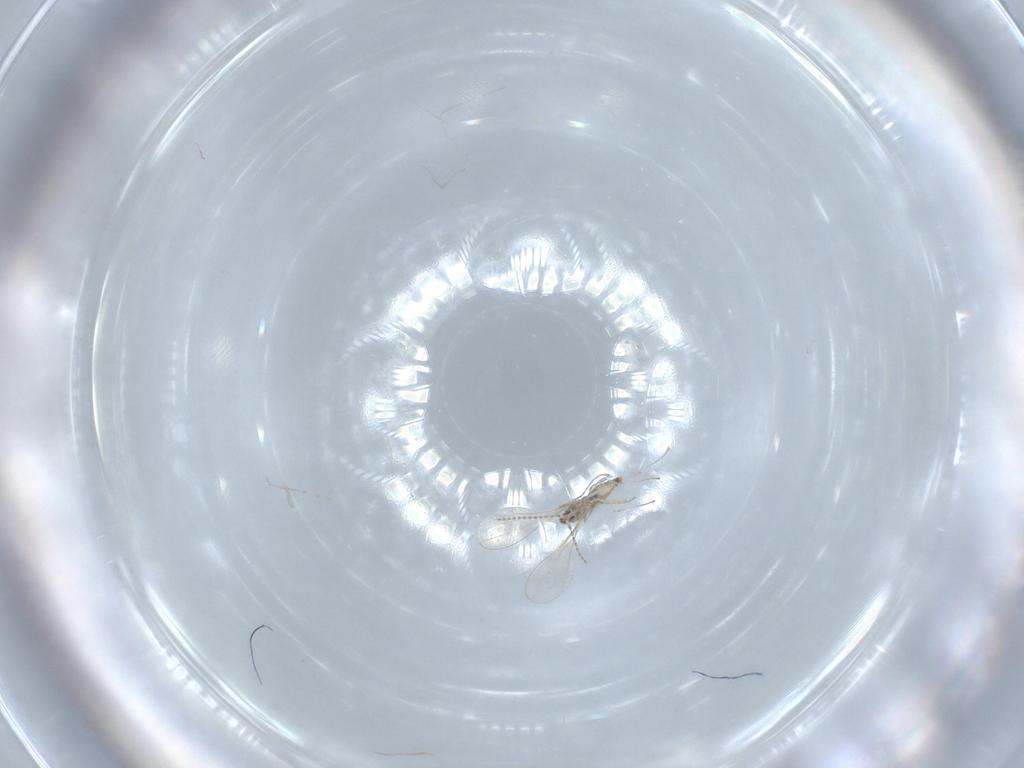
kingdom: Animalia
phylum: Arthropoda
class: Insecta
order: Diptera
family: Cecidomyiidae
